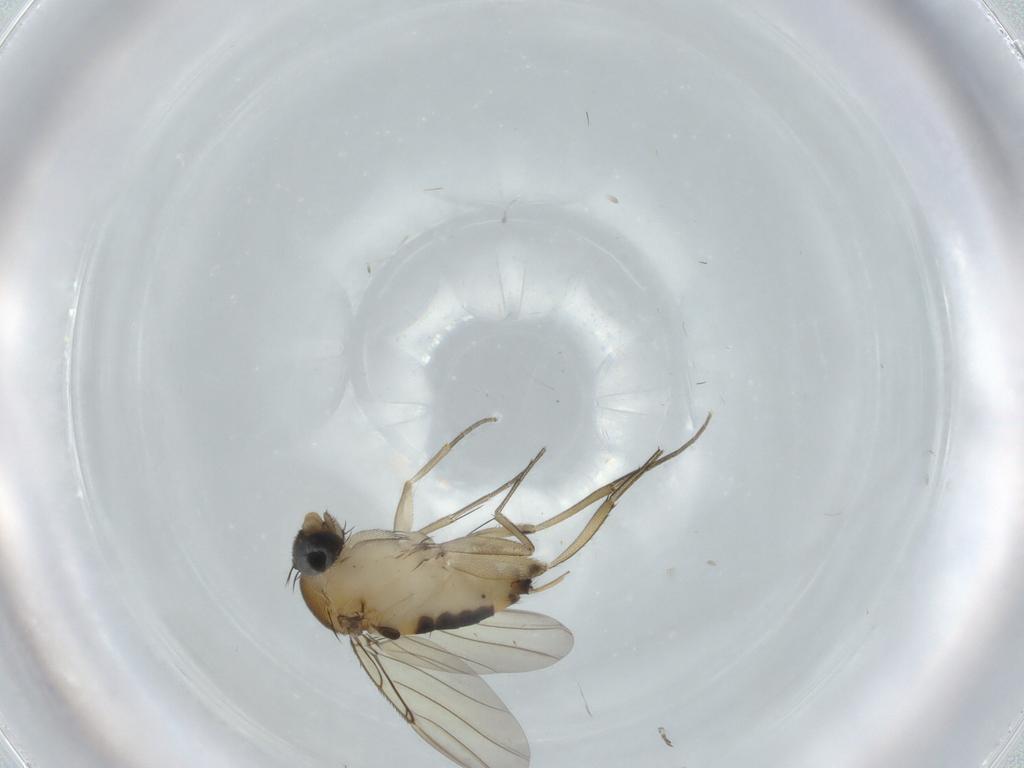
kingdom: Animalia
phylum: Arthropoda
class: Insecta
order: Diptera
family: Phoridae
